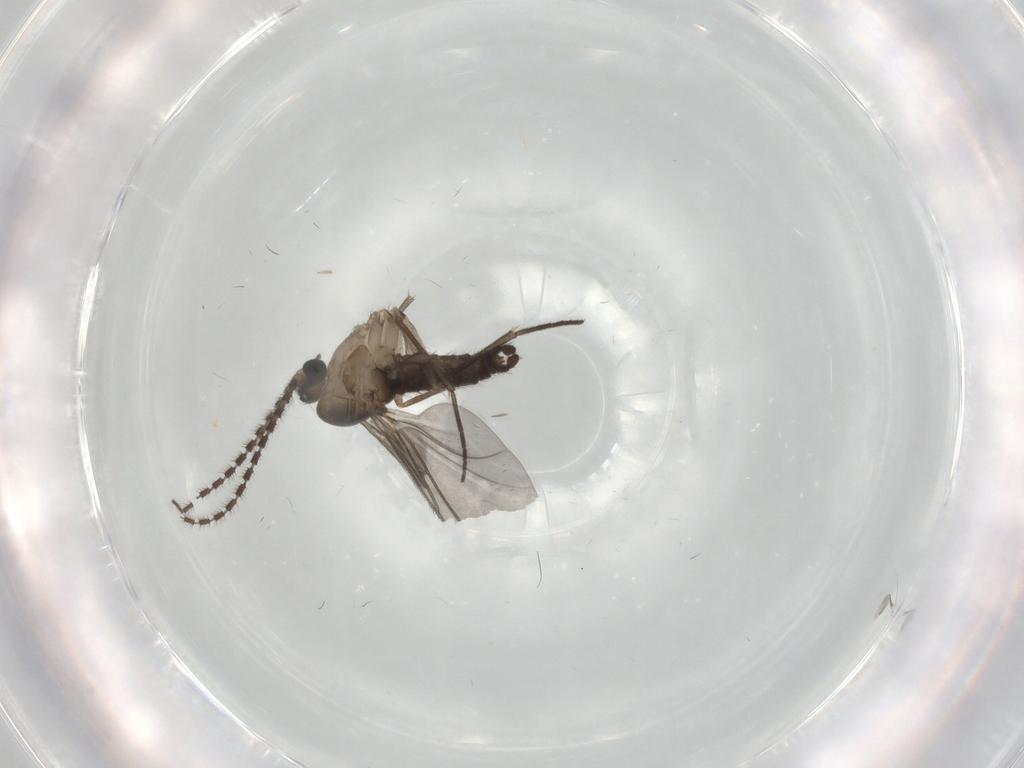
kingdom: Animalia
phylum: Arthropoda
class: Insecta
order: Diptera
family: Sciaridae
